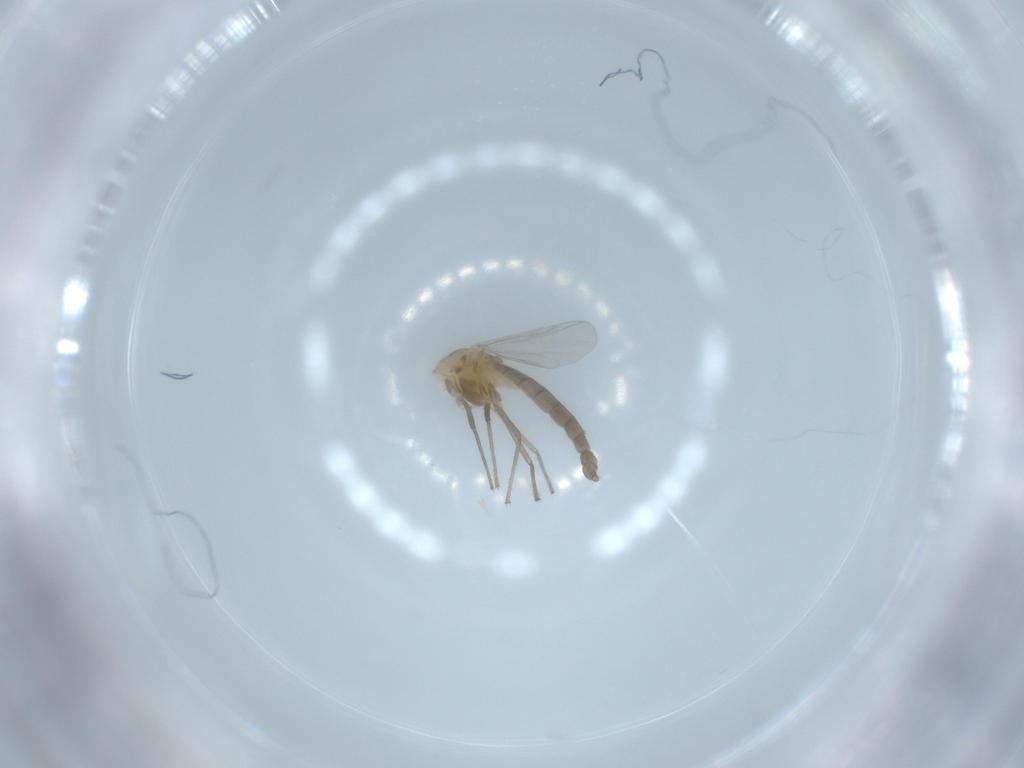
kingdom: Animalia
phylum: Arthropoda
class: Insecta
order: Diptera
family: Chironomidae
